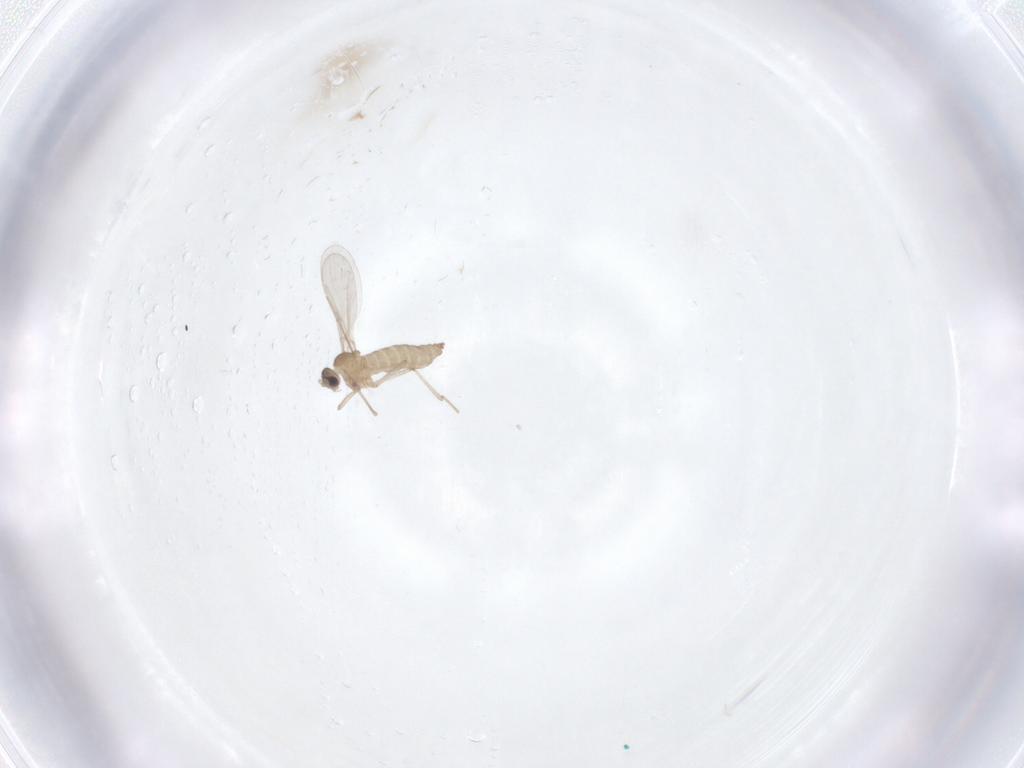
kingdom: Animalia
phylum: Arthropoda
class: Insecta
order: Diptera
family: Cecidomyiidae
